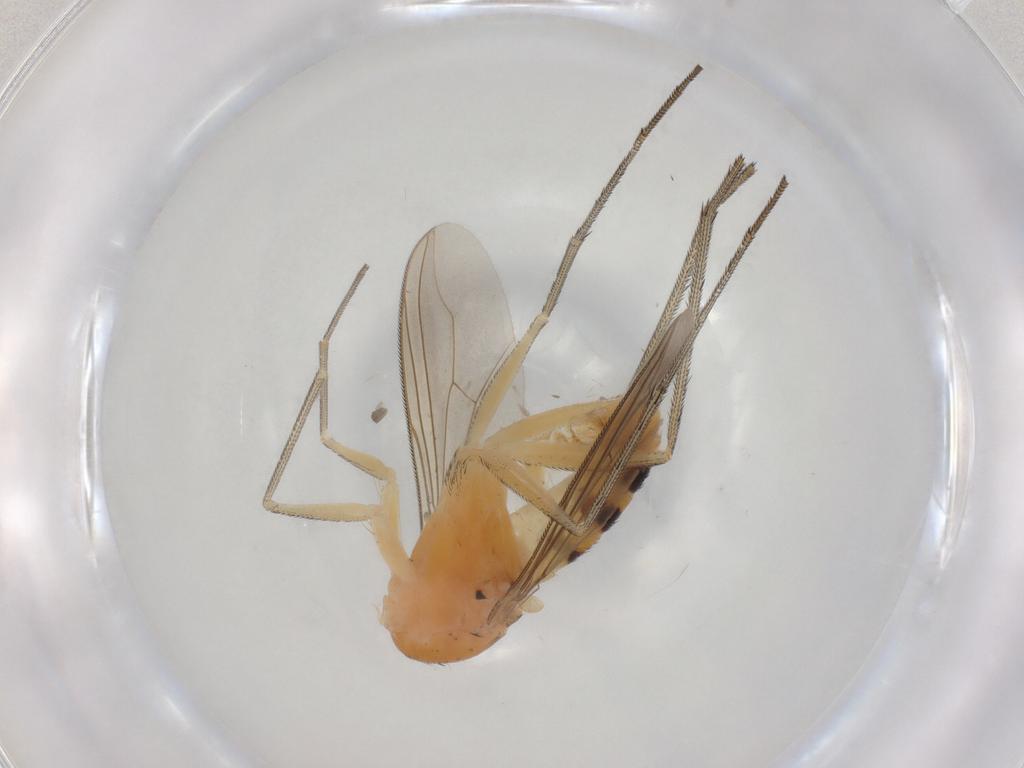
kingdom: Animalia
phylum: Arthropoda
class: Insecta
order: Diptera
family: Dolichopodidae
